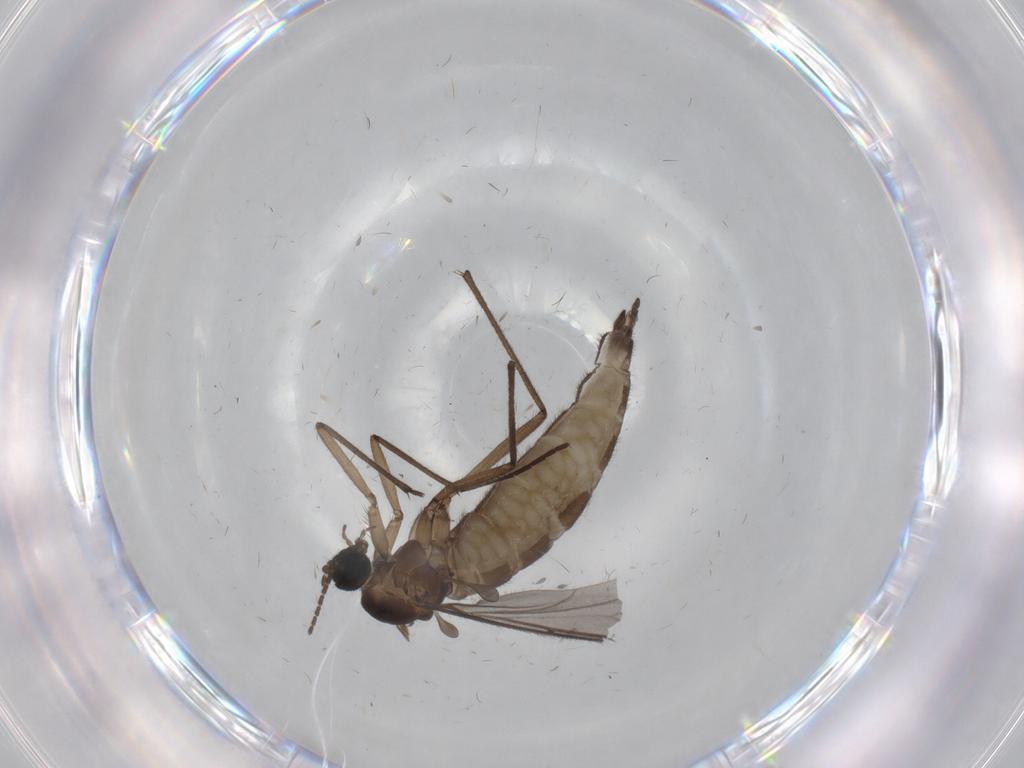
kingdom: Animalia
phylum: Arthropoda
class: Insecta
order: Diptera
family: Sciaridae
